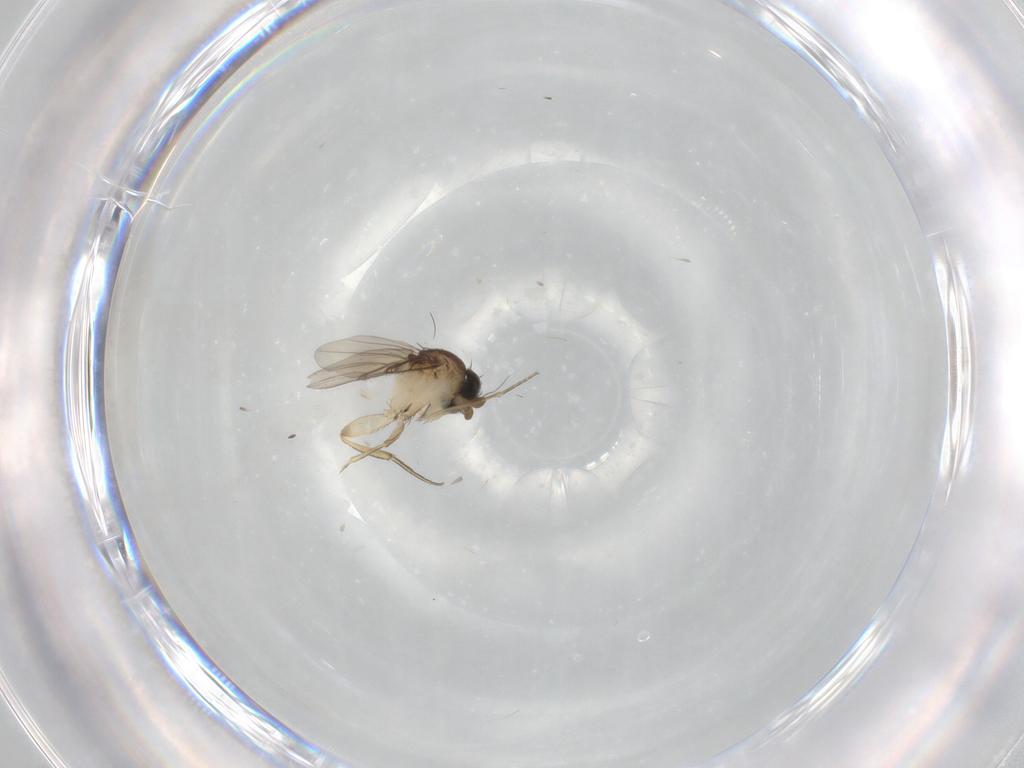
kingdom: Animalia
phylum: Arthropoda
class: Insecta
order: Diptera
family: Phoridae
